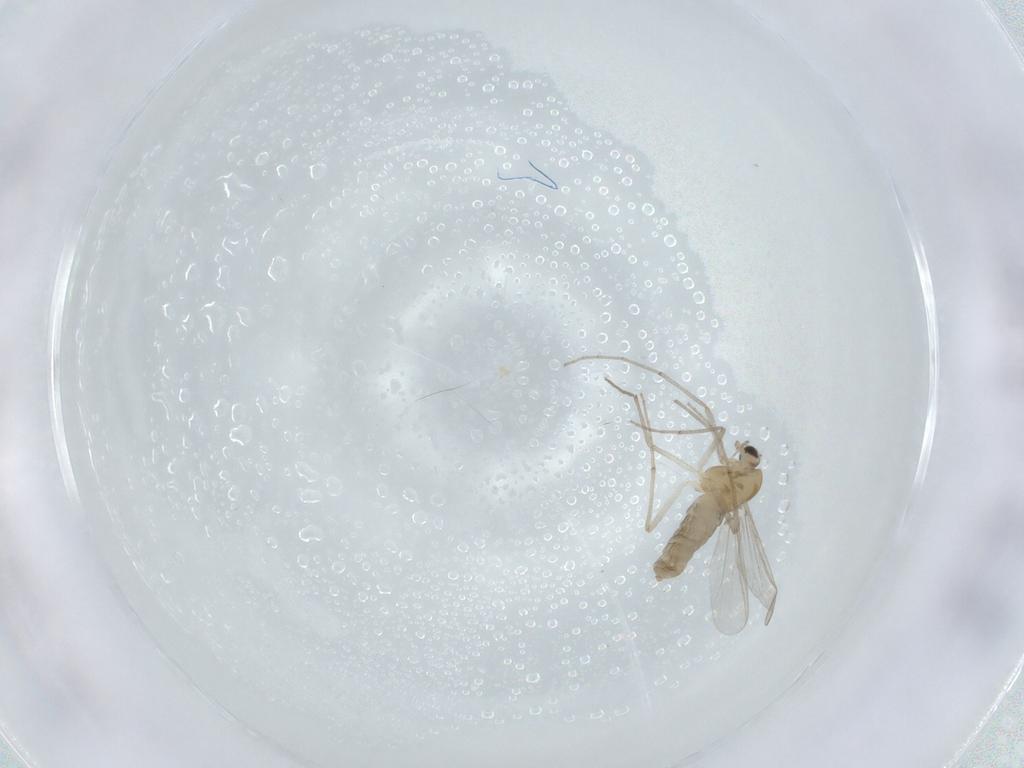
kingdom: Animalia
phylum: Arthropoda
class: Insecta
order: Diptera
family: Chironomidae
